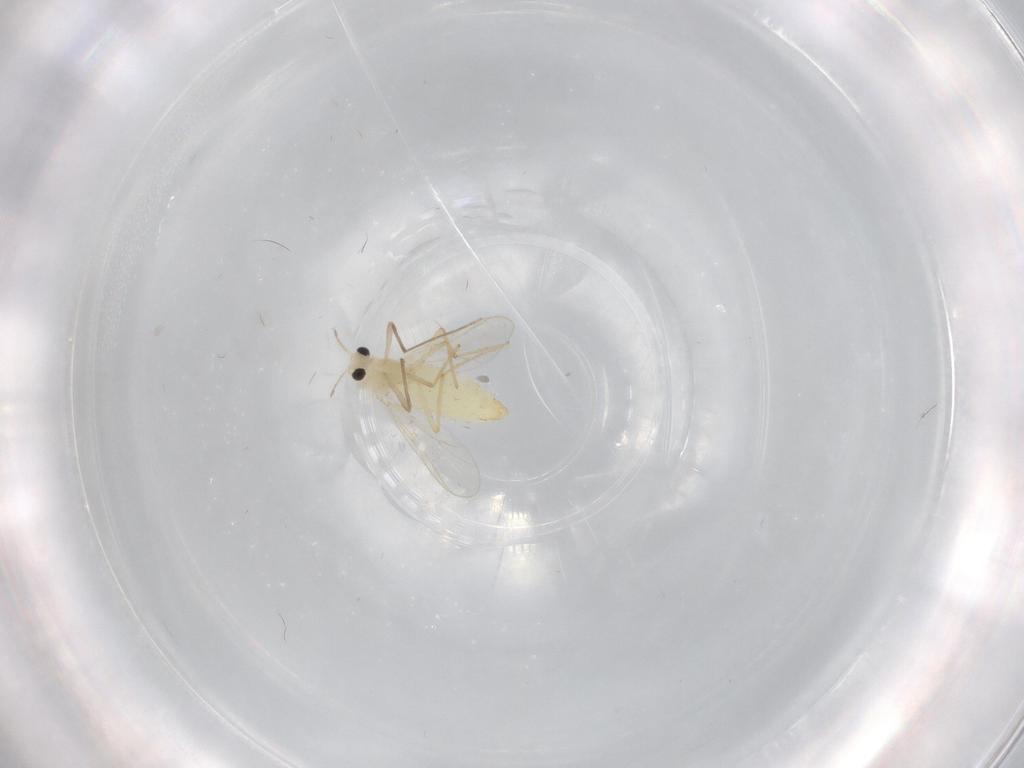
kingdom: Animalia
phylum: Arthropoda
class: Insecta
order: Diptera
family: Chironomidae
